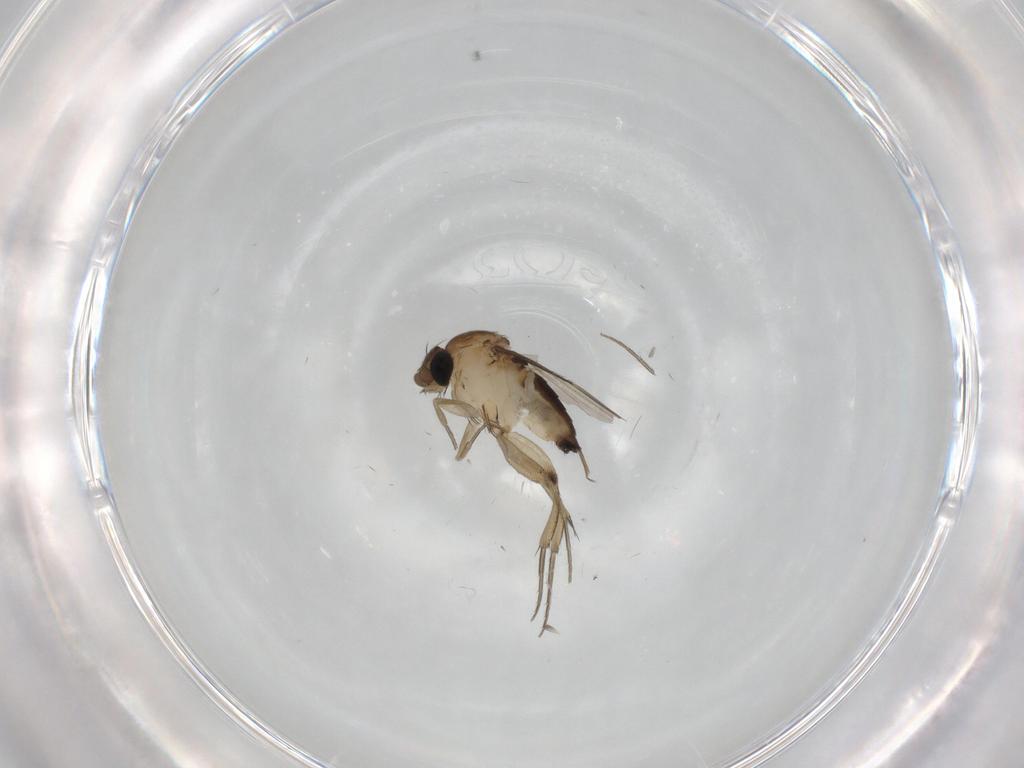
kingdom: Animalia
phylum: Arthropoda
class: Insecta
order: Diptera
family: Phoridae
